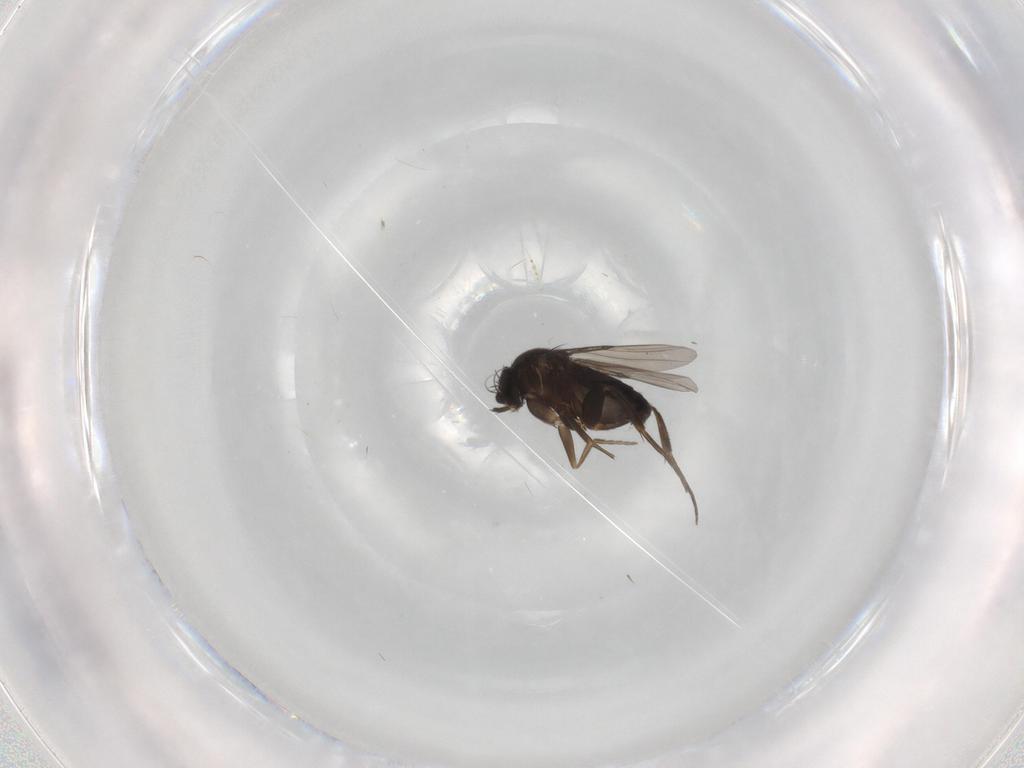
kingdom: Animalia
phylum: Arthropoda
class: Insecta
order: Diptera
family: Phoridae
